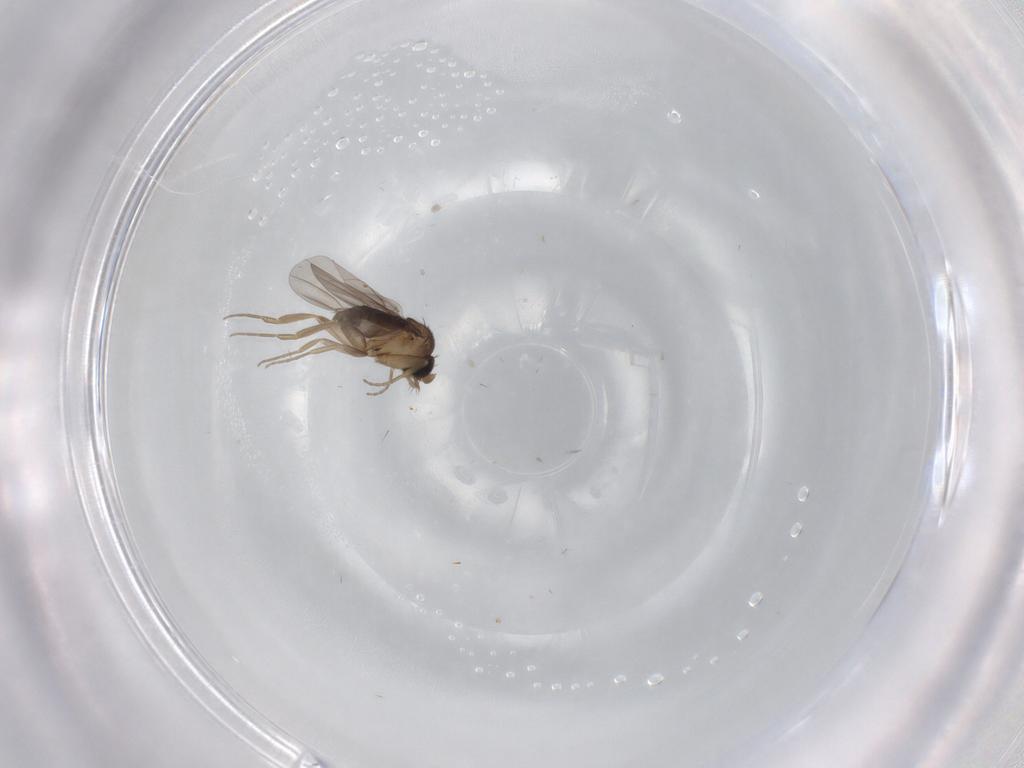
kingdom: Animalia
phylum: Arthropoda
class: Insecta
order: Diptera
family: Phoridae
